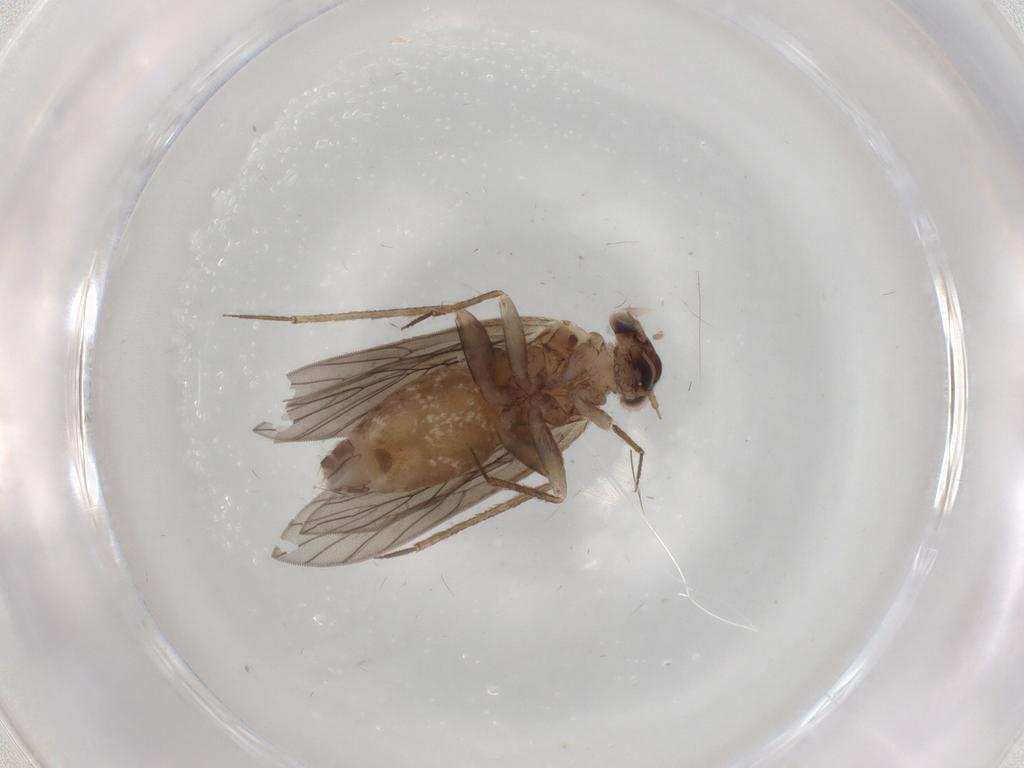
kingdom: Animalia
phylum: Arthropoda
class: Insecta
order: Psocodea
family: Lepidopsocidae
